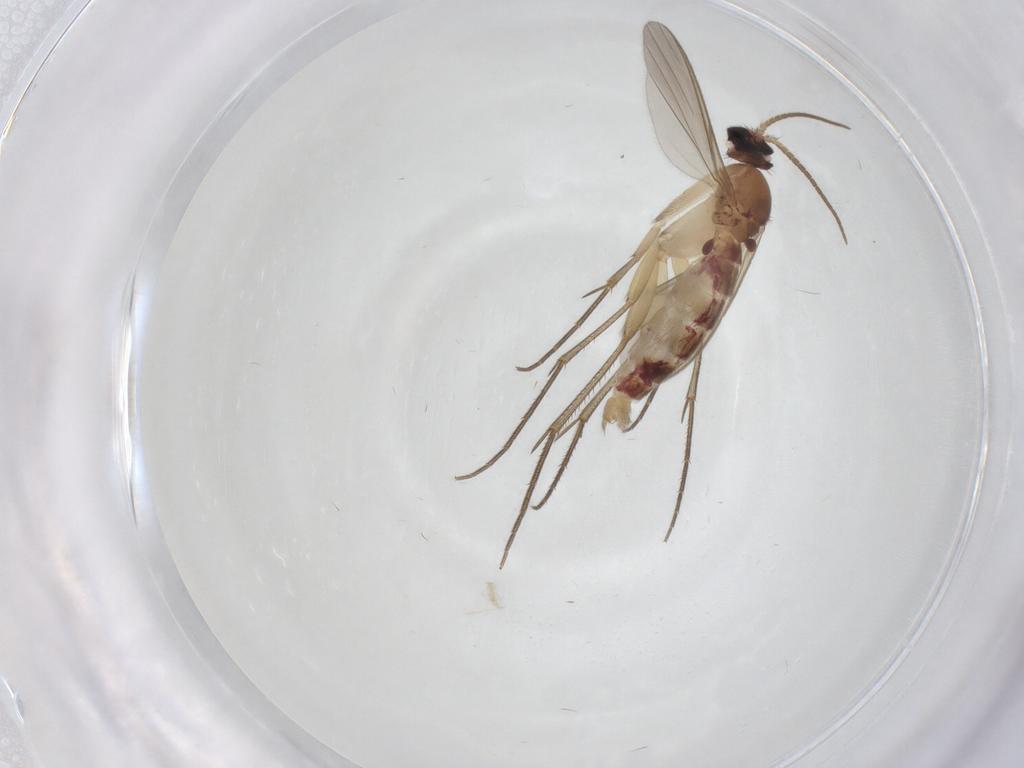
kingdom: Animalia
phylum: Arthropoda
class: Insecta
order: Diptera
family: Mycetophilidae
